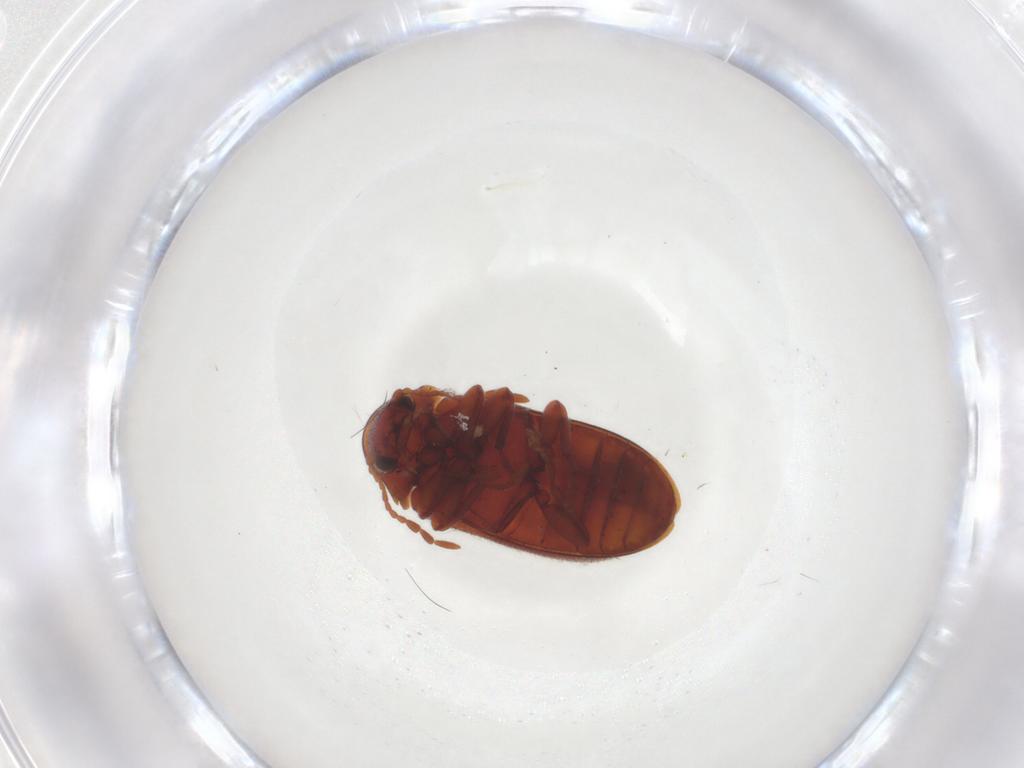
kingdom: Animalia
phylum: Arthropoda
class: Insecta
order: Coleoptera
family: Ptinidae
